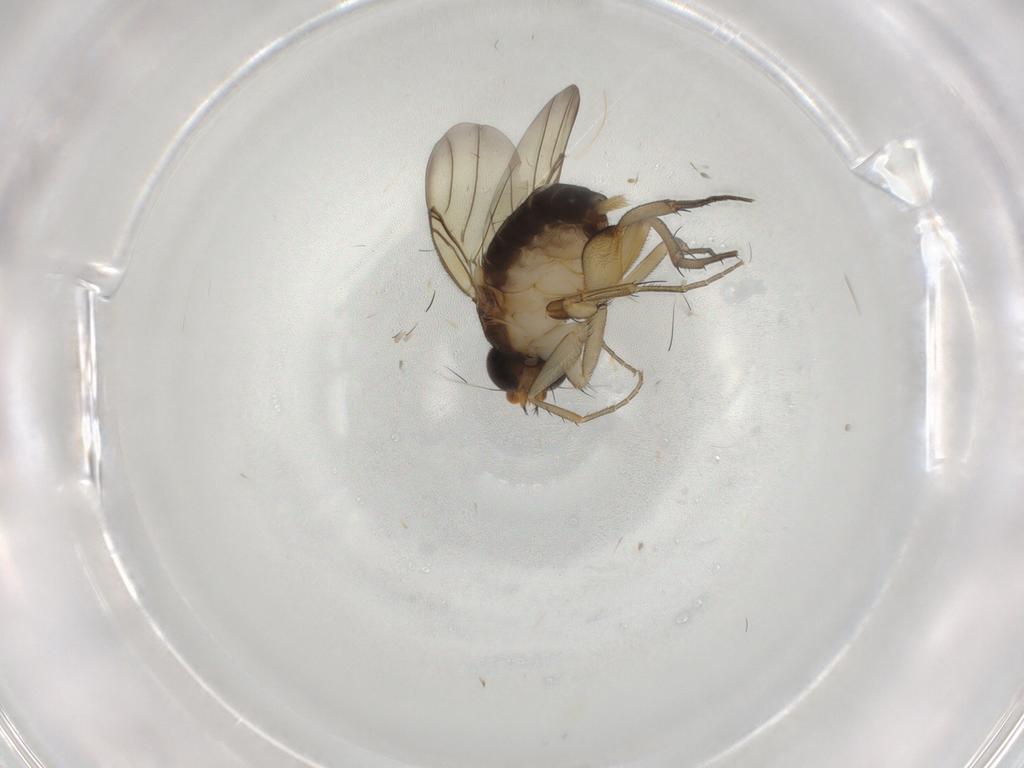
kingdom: Animalia
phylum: Arthropoda
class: Insecta
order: Diptera
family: Phoridae
